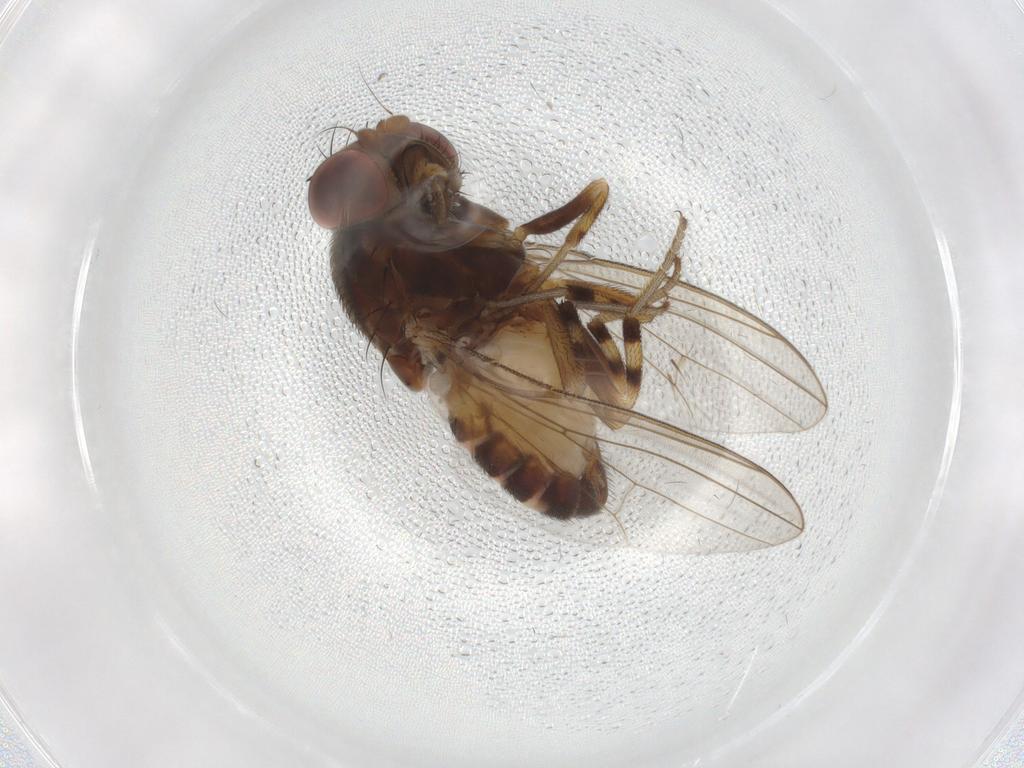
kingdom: Animalia
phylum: Arthropoda
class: Insecta
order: Diptera
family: Drosophilidae
